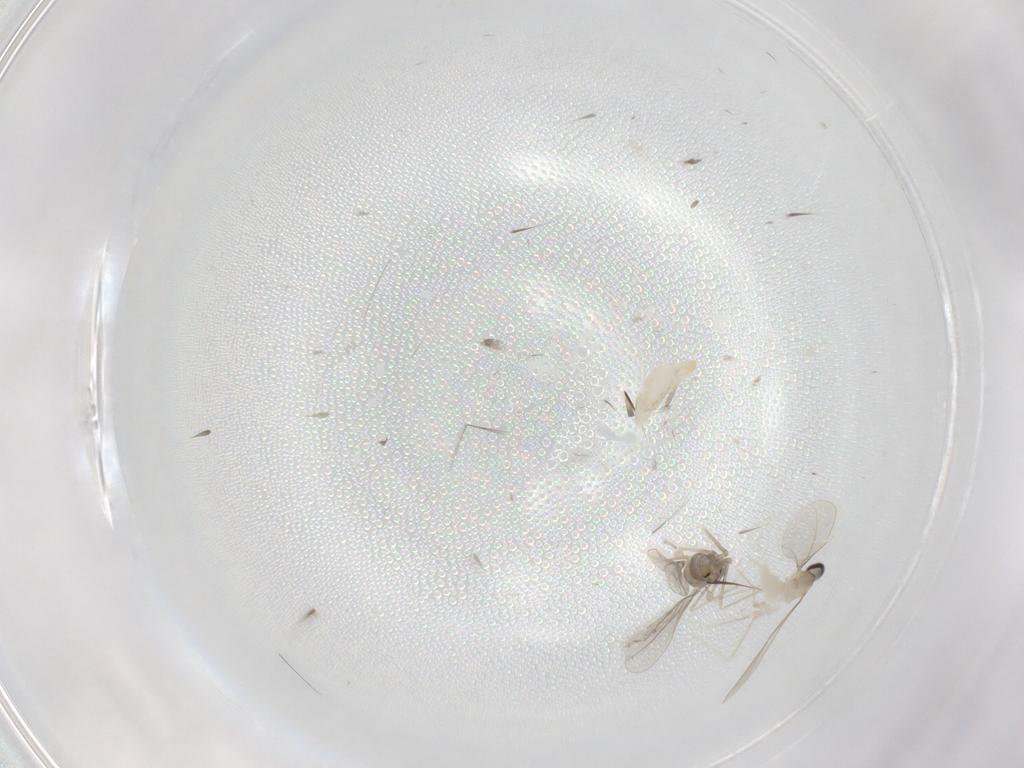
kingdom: Animalia
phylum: Arthropoda
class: Insecta
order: Diptera
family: Cecidomyiidae
